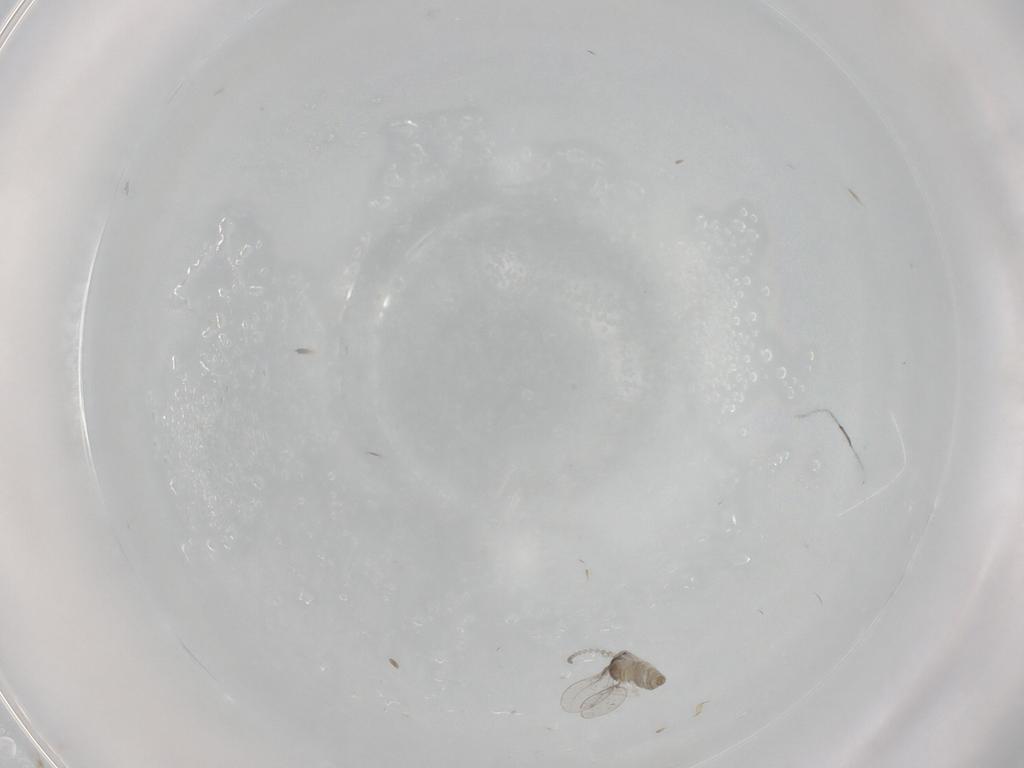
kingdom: Animalia
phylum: Arthropoda
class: Insecta
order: Diptera
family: Cecidomyiidae
